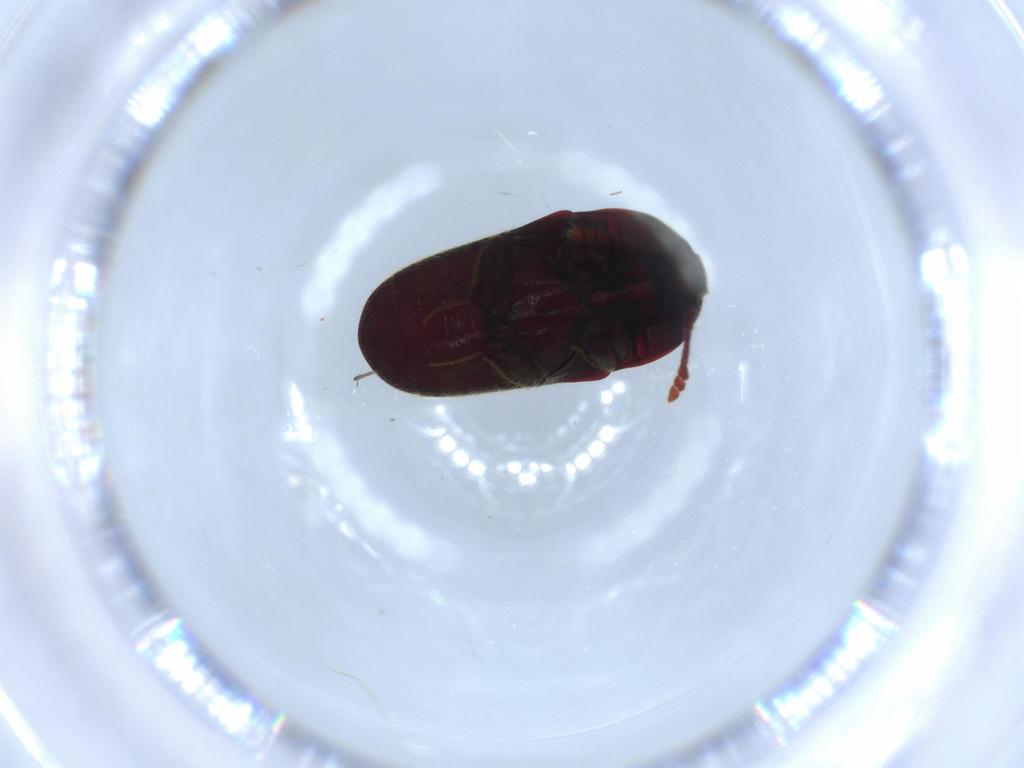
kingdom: Animalia
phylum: Arthropoda
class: Insecta
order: Coleoptera
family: Throscidae
